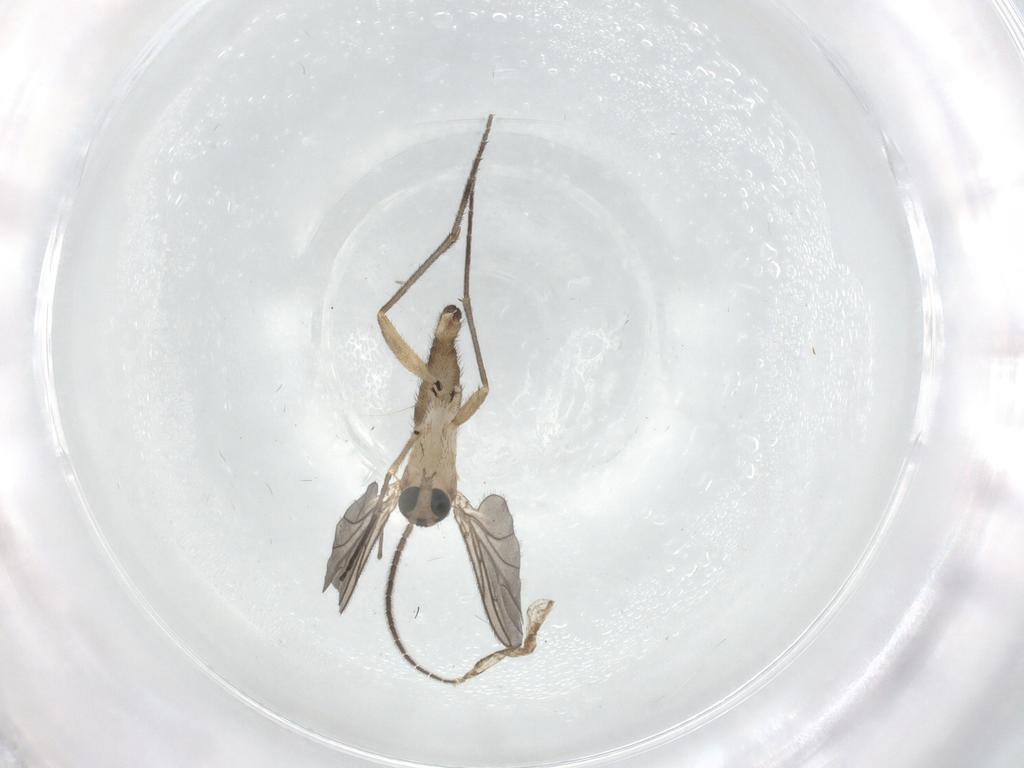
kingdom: Animalia
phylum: Arthropoda
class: Insecta
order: Diptera
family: Sciaridae
